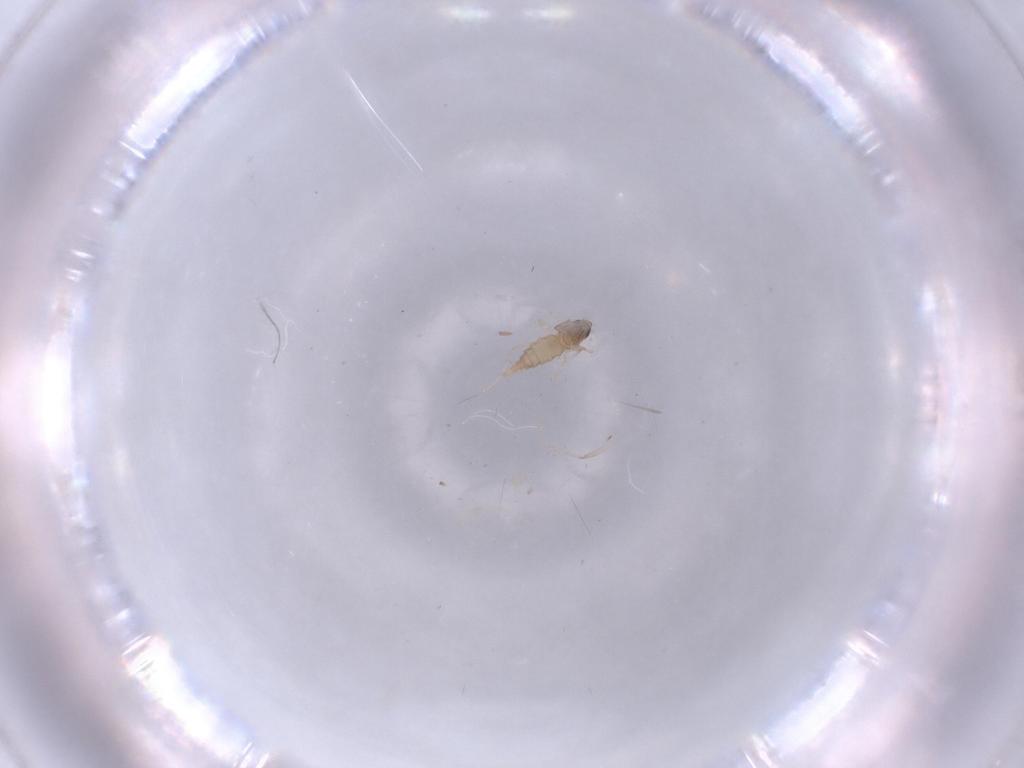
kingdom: Animalia
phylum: Arthropoda
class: Insecta
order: Diptera
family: Cecidomyiidae
